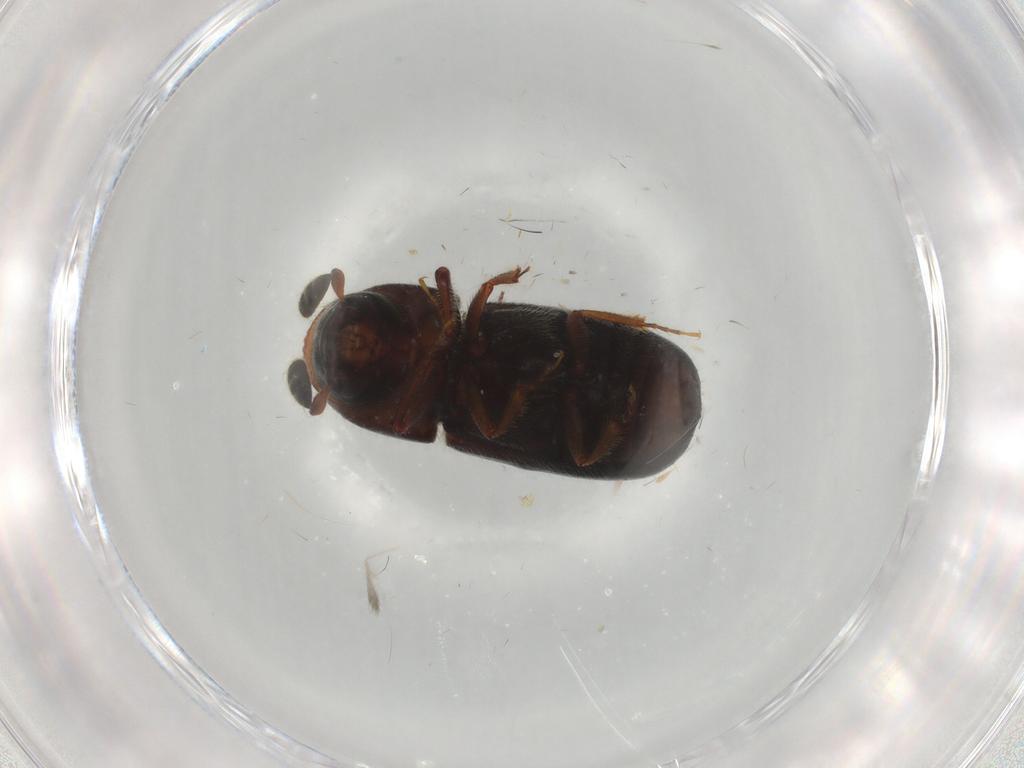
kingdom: Animalia
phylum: Arthropoda
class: Insecta
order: Coleoptera
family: Curculionidae
